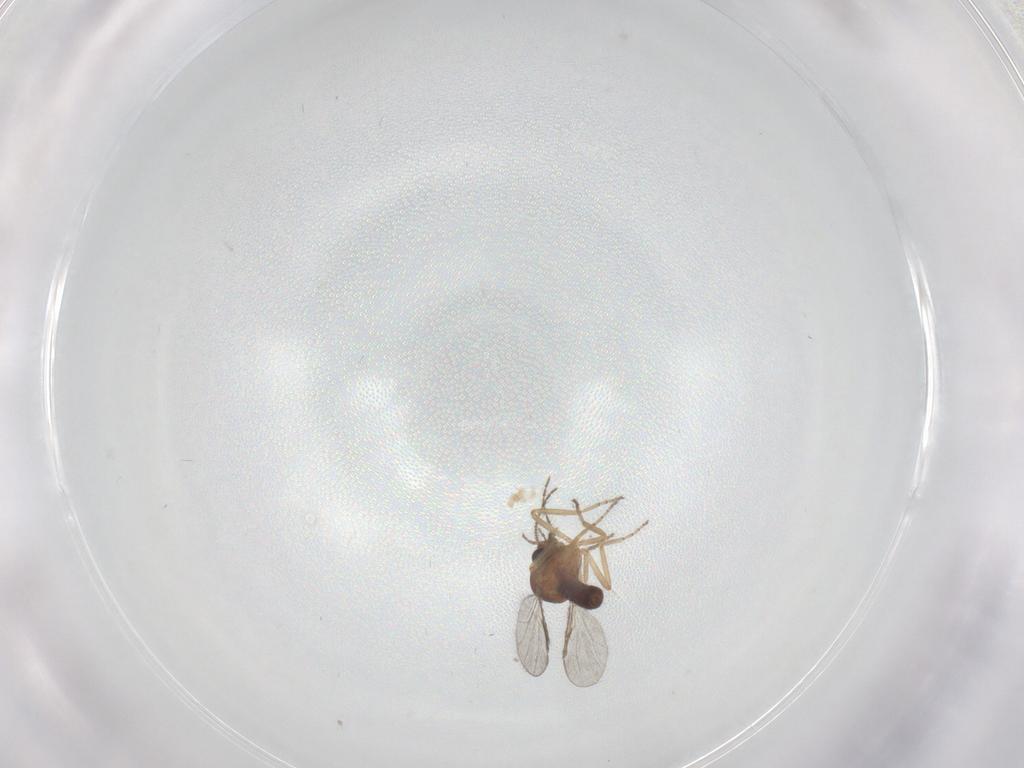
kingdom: Animalia
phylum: Arthropoda
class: Insecta
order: Diptera
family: Ceratopogonidae
